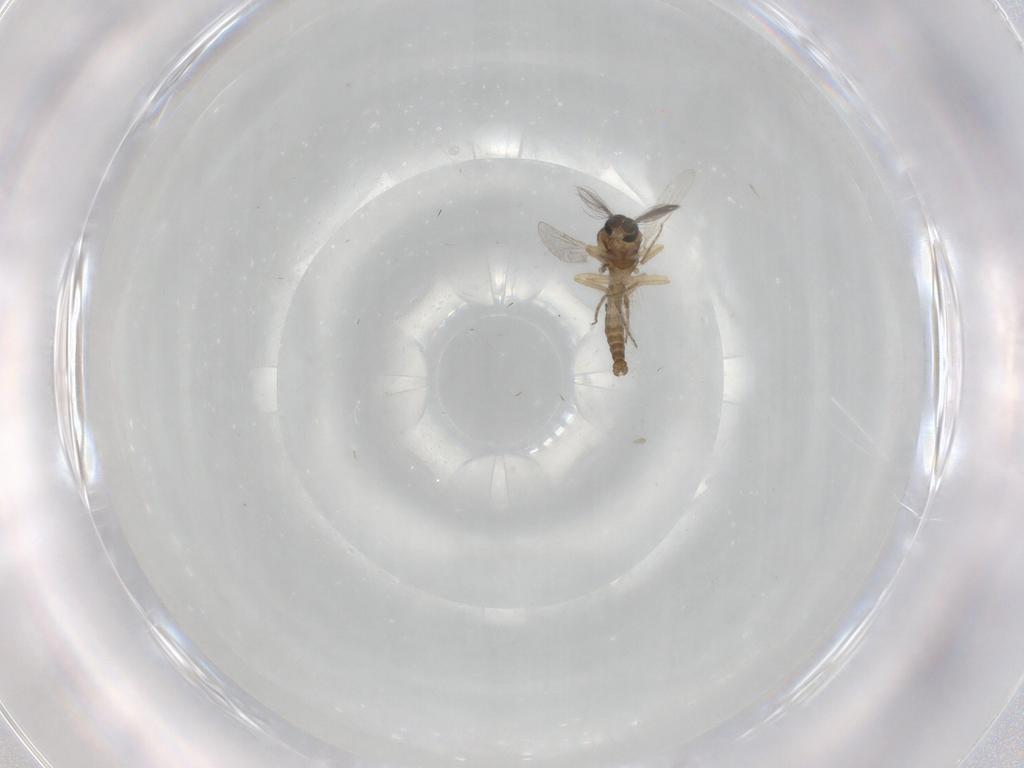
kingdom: Animalia
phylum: Arthropoda
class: Insecta
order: Diptera
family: Ceratopogonidae
